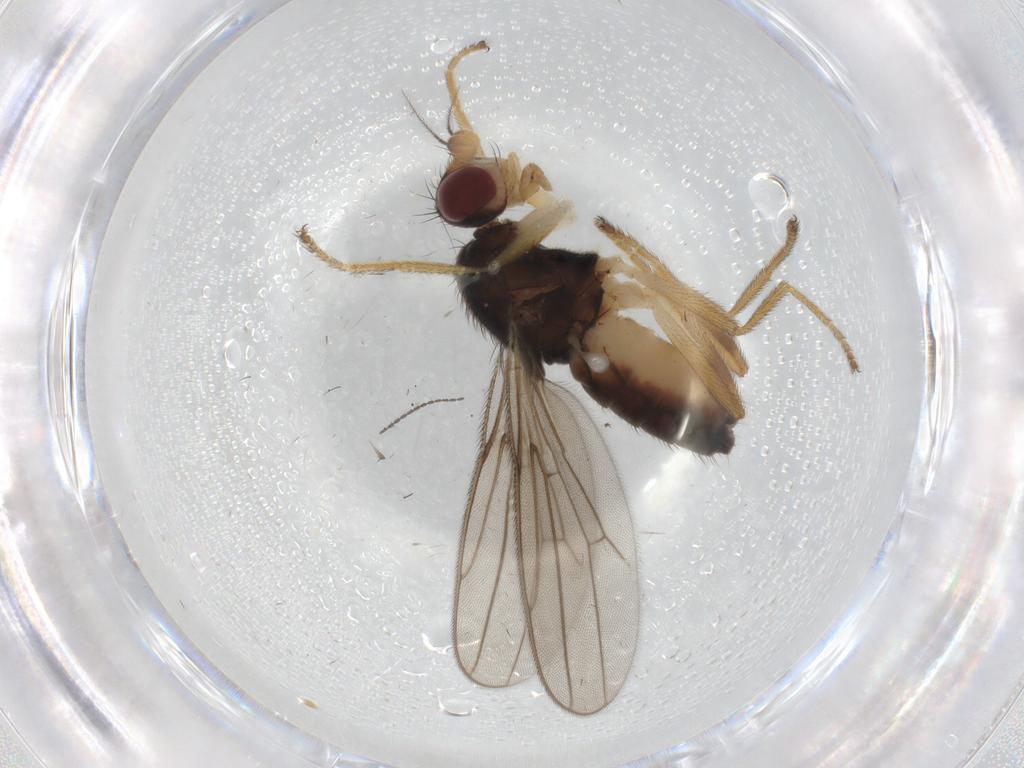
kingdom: Animalia
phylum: Arthropoda
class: Insecta
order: Diptera
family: Chloropidae
